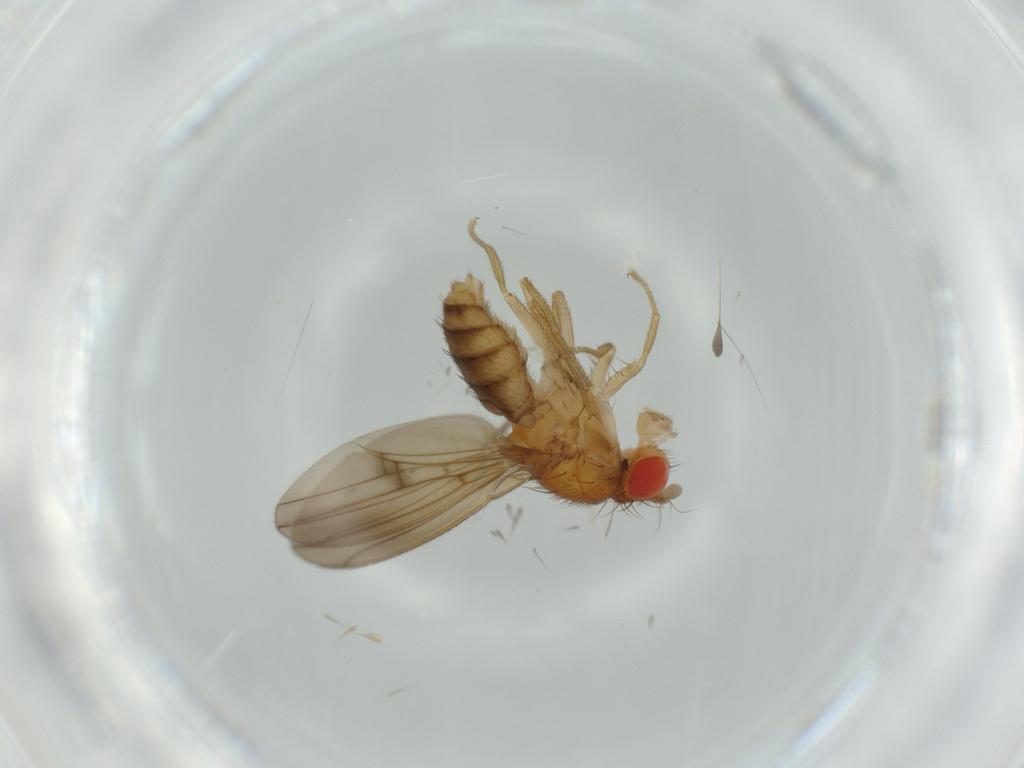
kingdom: Animalia
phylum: Arthropoda
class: Insecta
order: Diptera
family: Drosophilidae
